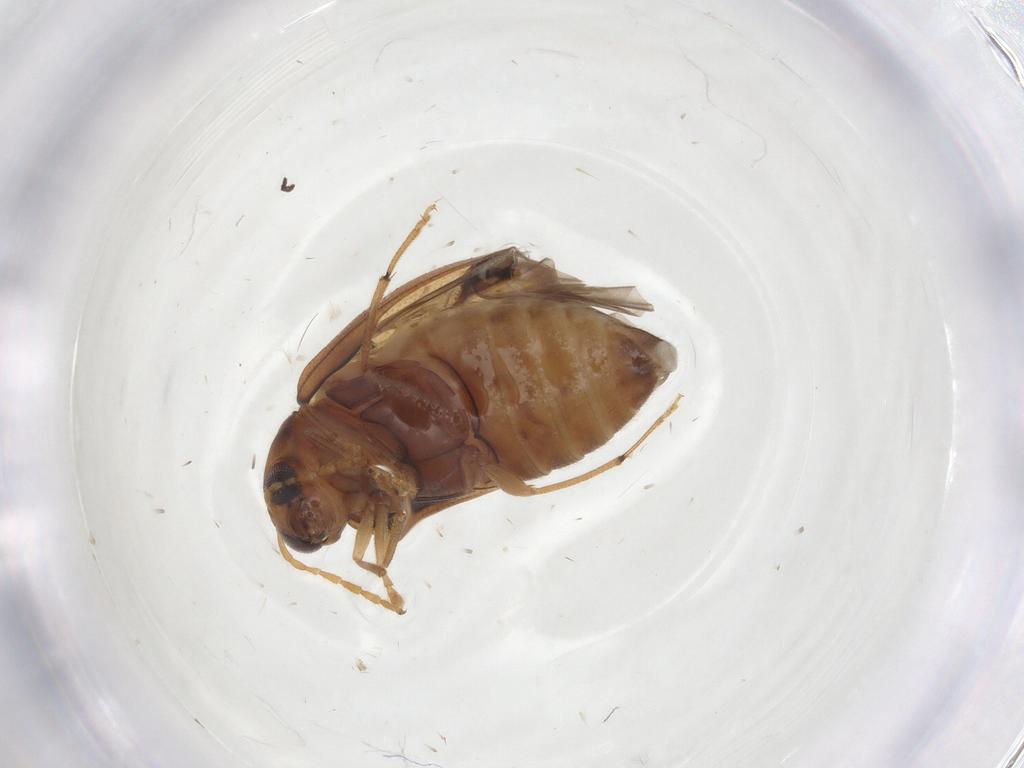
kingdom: Animalia
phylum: Arthropoda
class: Insecta
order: Coleoptera
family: Chrysomelidae
